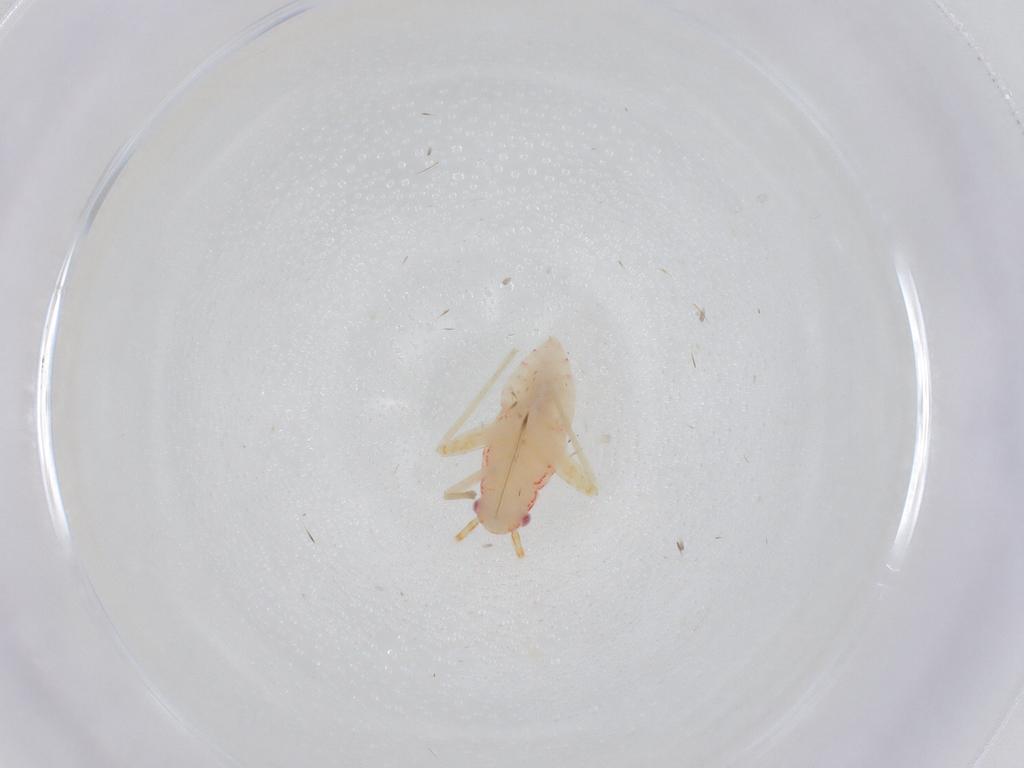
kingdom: Animalia
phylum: Arthropoda
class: Insecta
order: Hemiptera
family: Miridae
